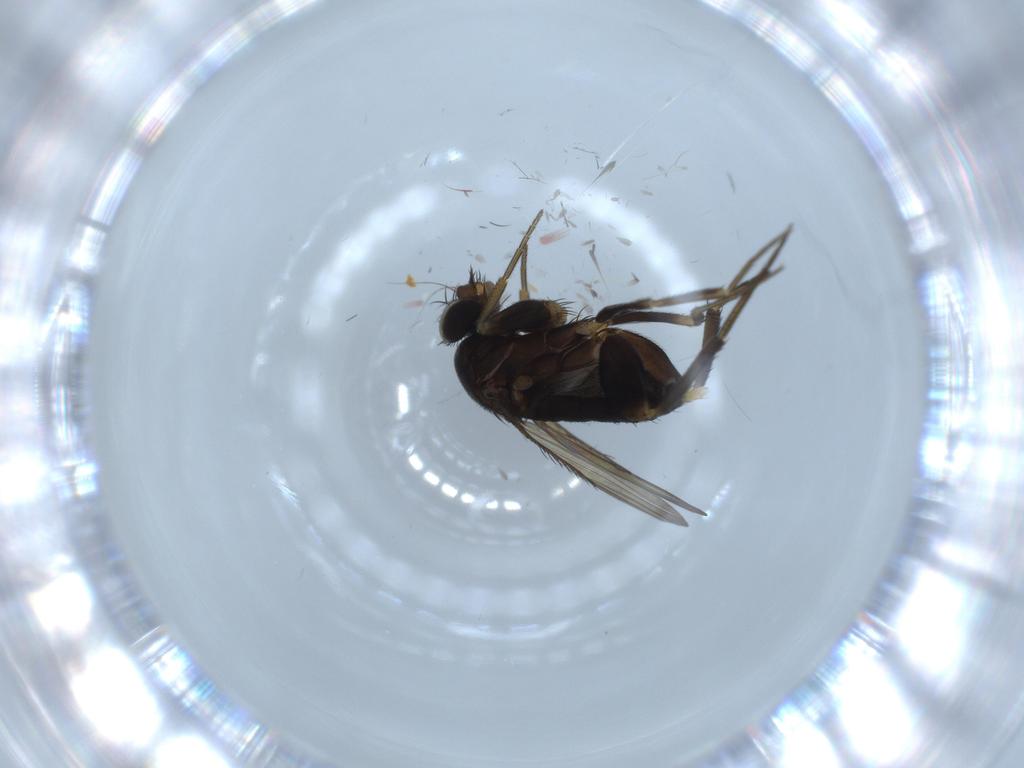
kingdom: Animalia
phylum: Arthropoda
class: Insecta
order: Diptera
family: Phoridae
